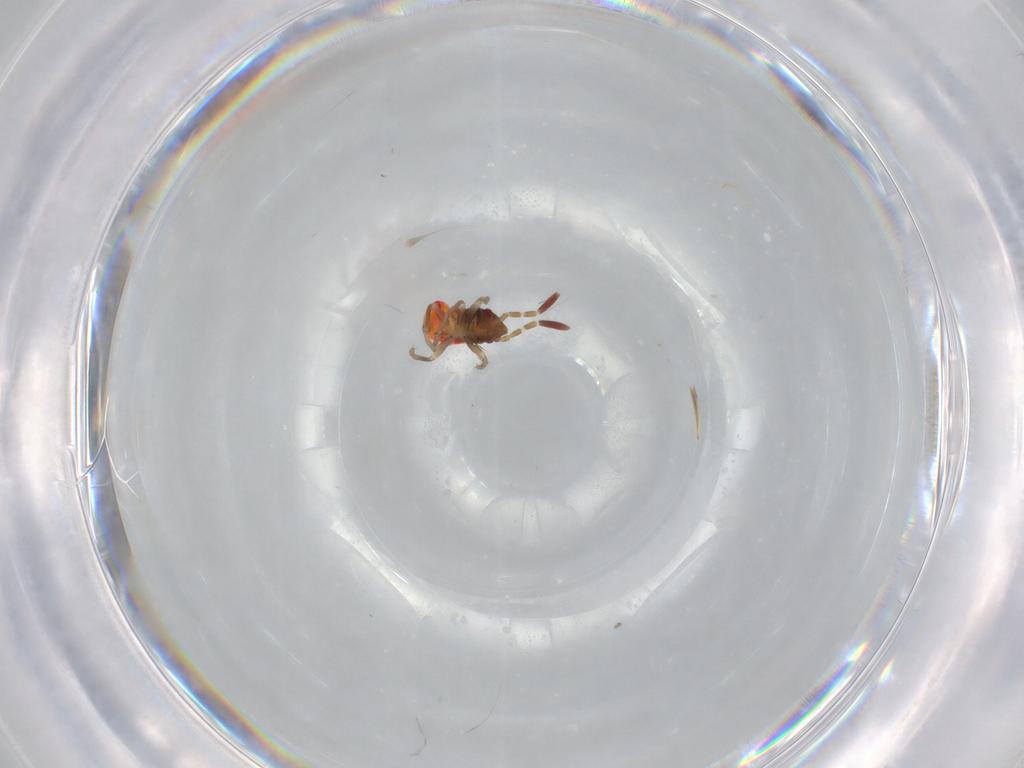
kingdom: Animalia
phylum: Arthropoda
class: Insecta
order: Hemiptera
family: Rhyparochromidae
